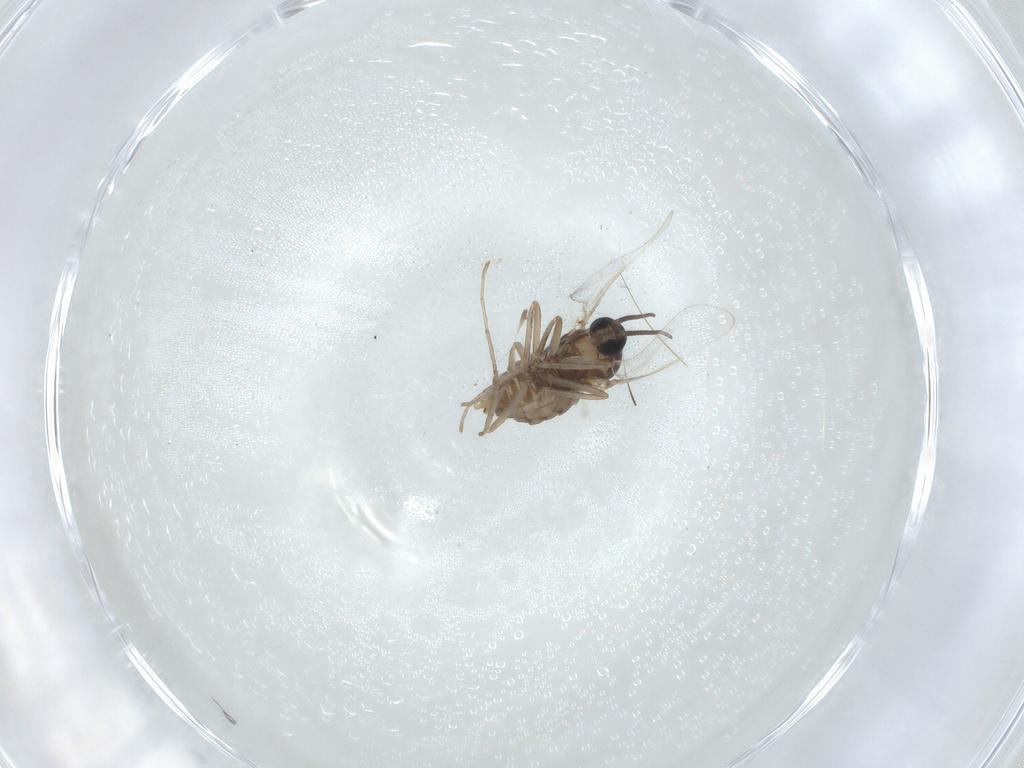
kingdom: Animalia
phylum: Arthropoda
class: Insecta
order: Diptera
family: Cecidomyiidae
